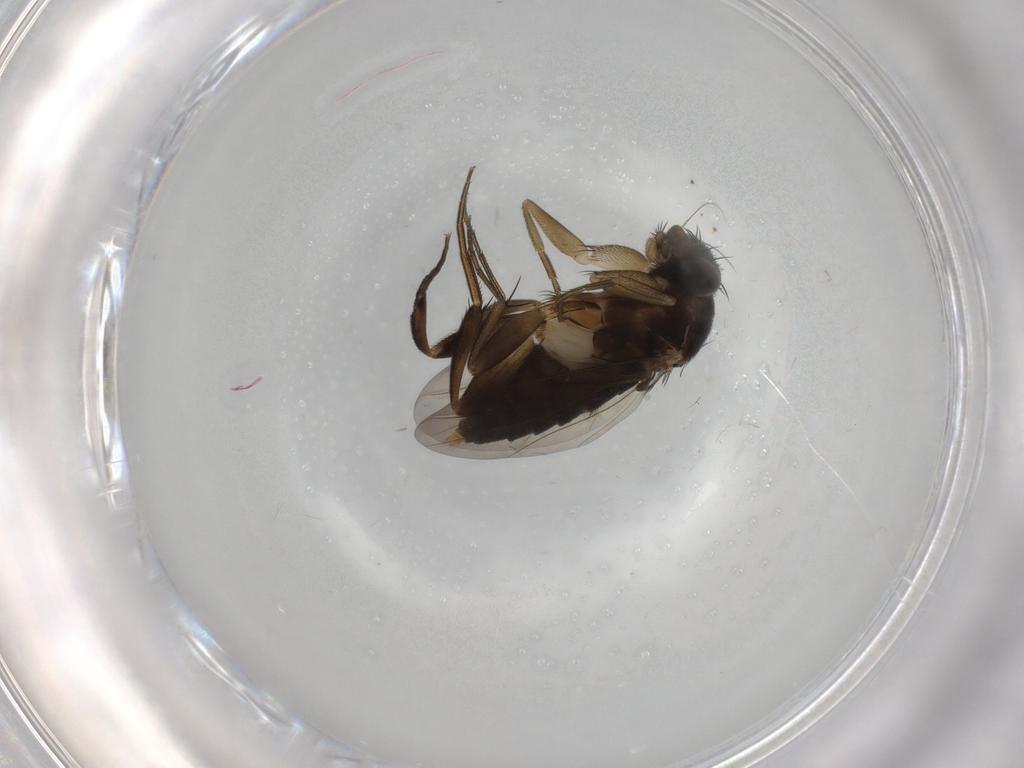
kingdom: Animalia
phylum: Arthropoda
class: Insecta
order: Diptera
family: Phoridae
